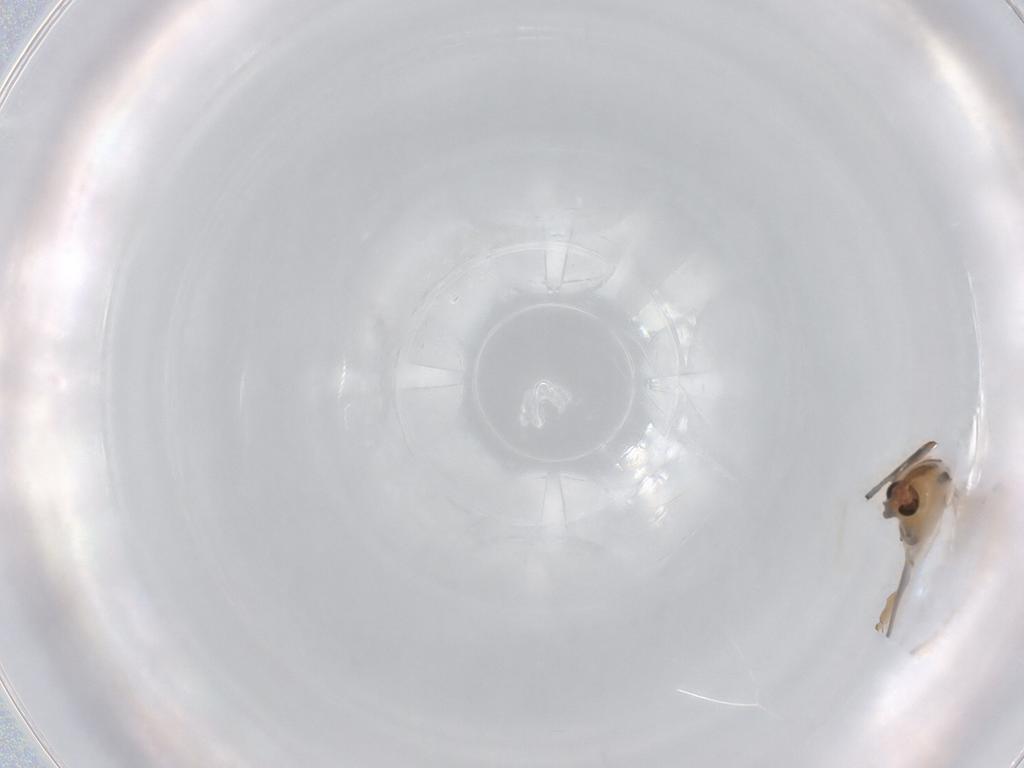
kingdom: Animalia
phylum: Arthropoda
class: Insecta
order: Diptera
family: Chironomidae
